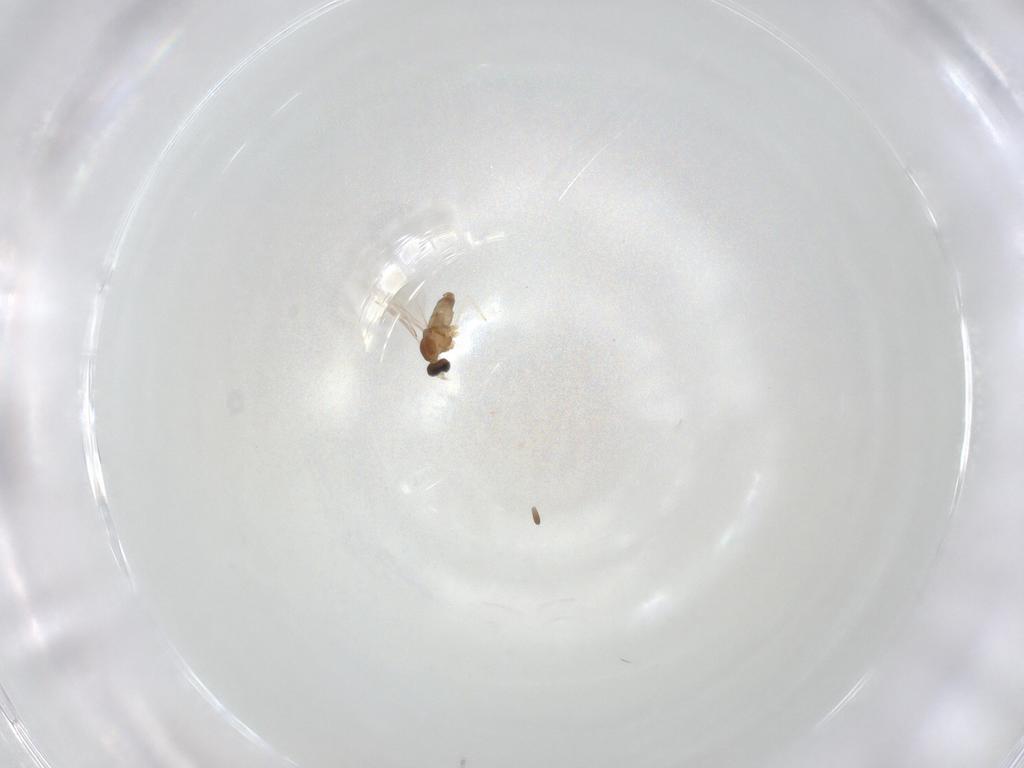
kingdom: Animalia
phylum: Arthropoda
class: Insecta
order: Diptera
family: Cecidomyiidae
